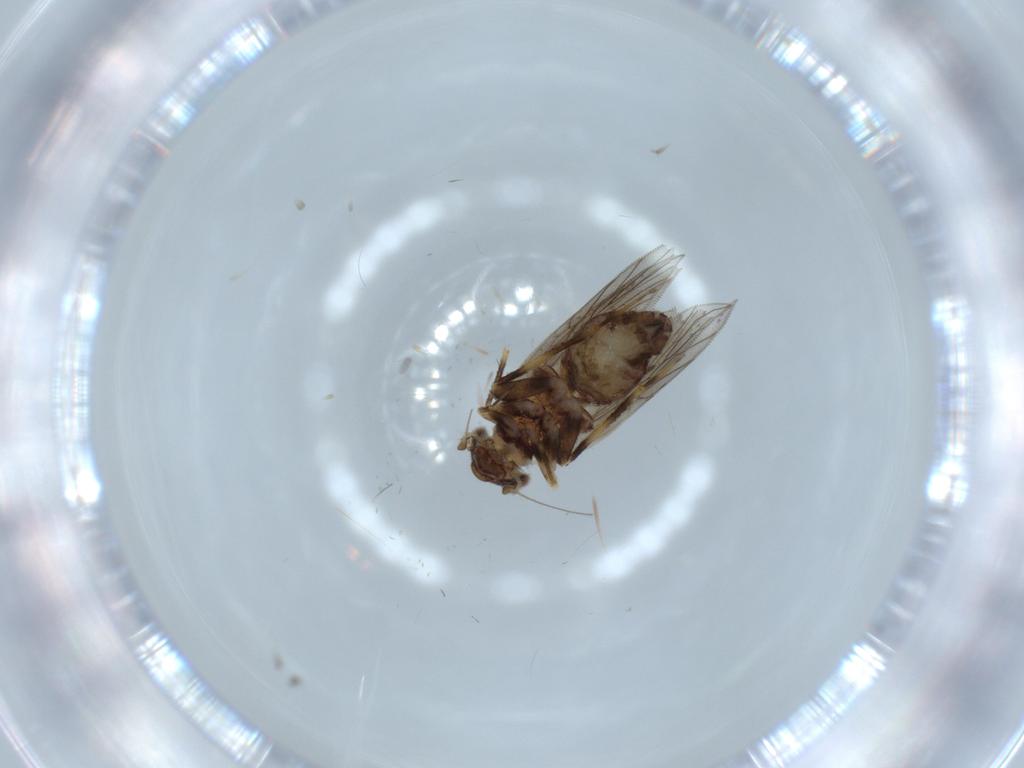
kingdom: Animalia
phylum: Arthropoda
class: Insecta
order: Psocodea
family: Lepidopsocidae
